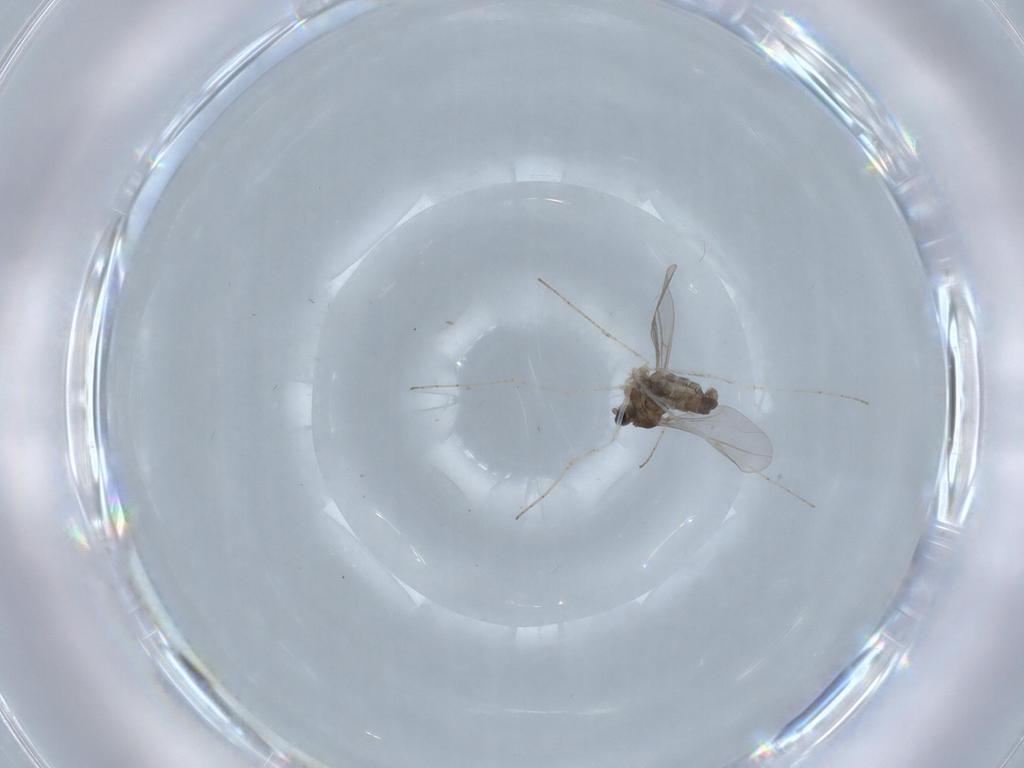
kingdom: Animalia
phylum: Arthropoda
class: Insecta
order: Diptera
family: Cecidomyiidae
